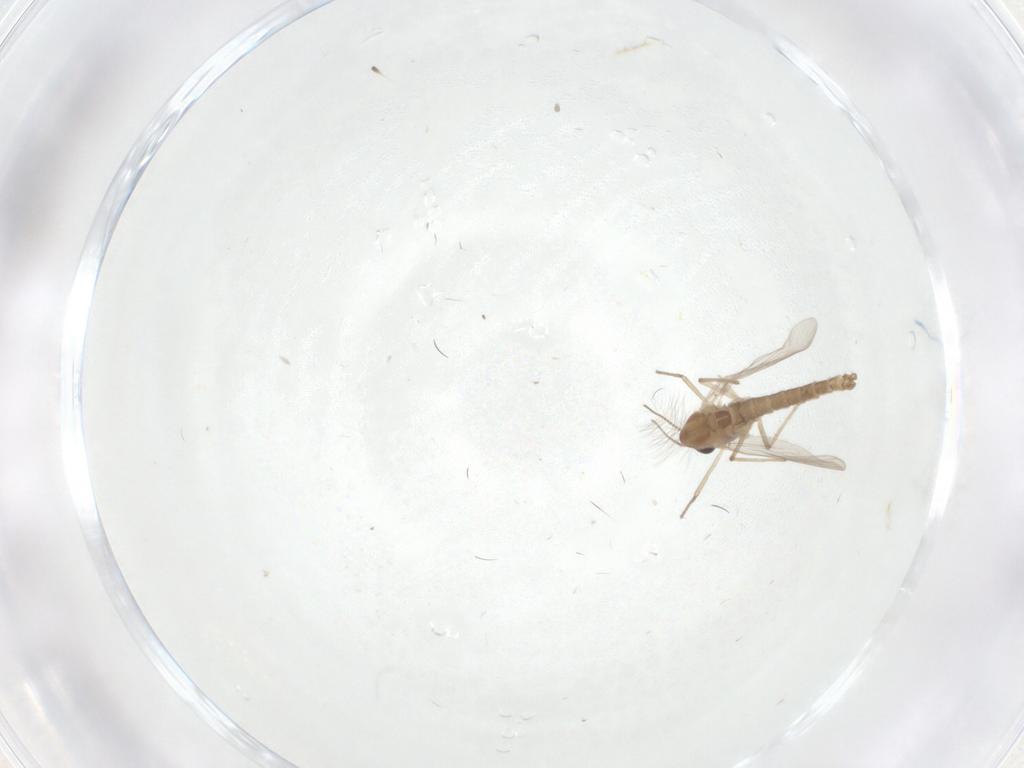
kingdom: Animalia
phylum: Arthropoda
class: Insecta
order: Diptera
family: Chironomidae
